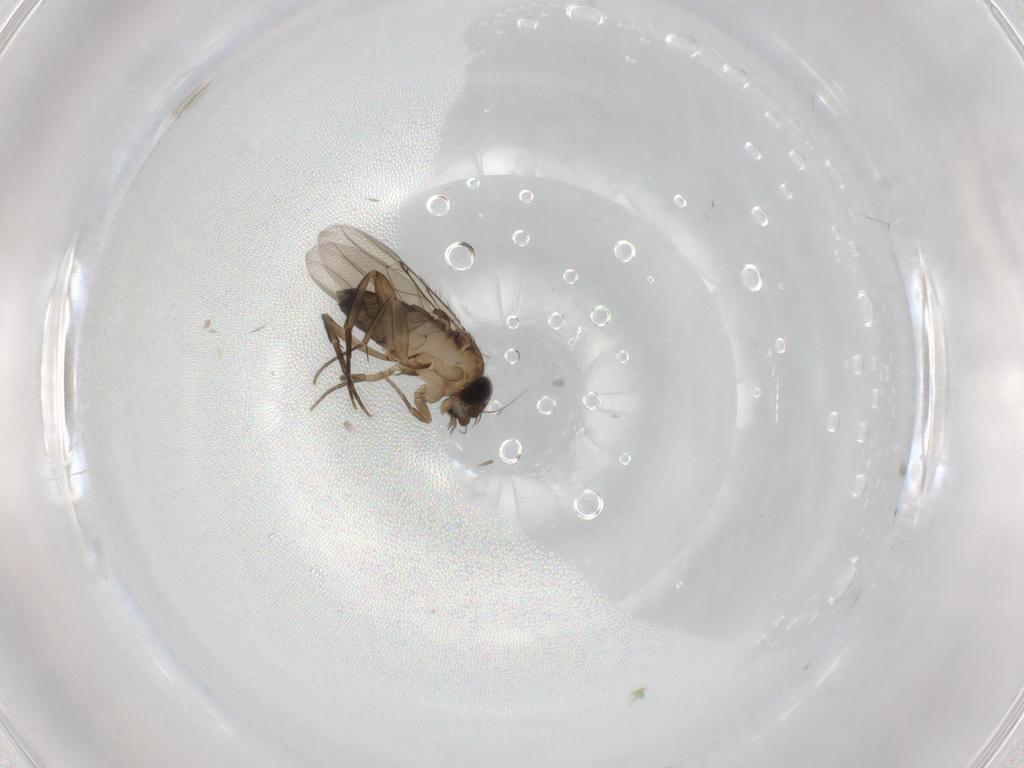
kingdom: Animalia
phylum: Arthropoda
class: Insecta
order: Diptera
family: Phoridae
